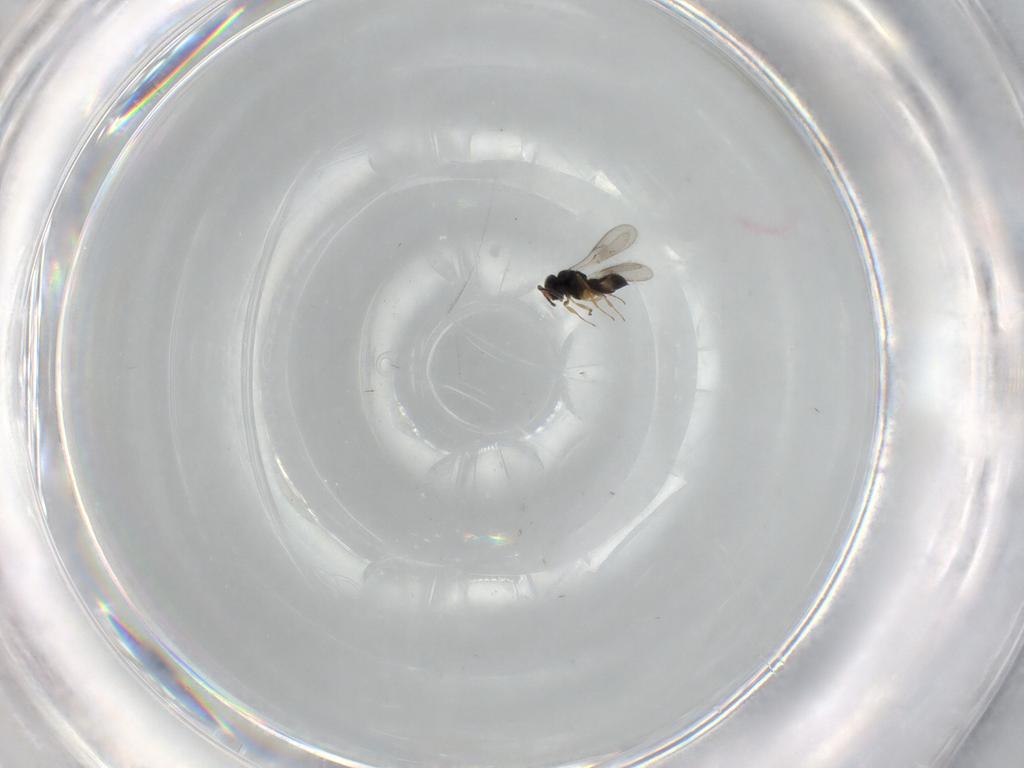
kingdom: Animalia
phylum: Arthropoda
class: Insecta
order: Hymenoptera
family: Scelionidae
